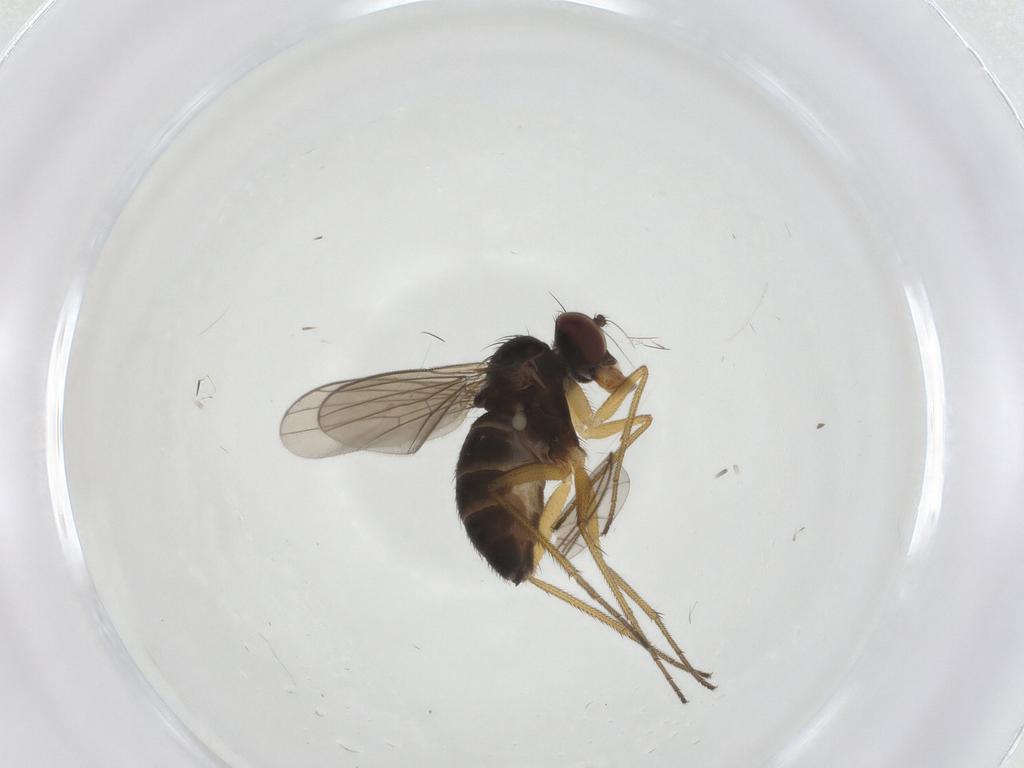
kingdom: Animalia
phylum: Arthropoda
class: Insecta
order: Diptera
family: Dolichopodidae
